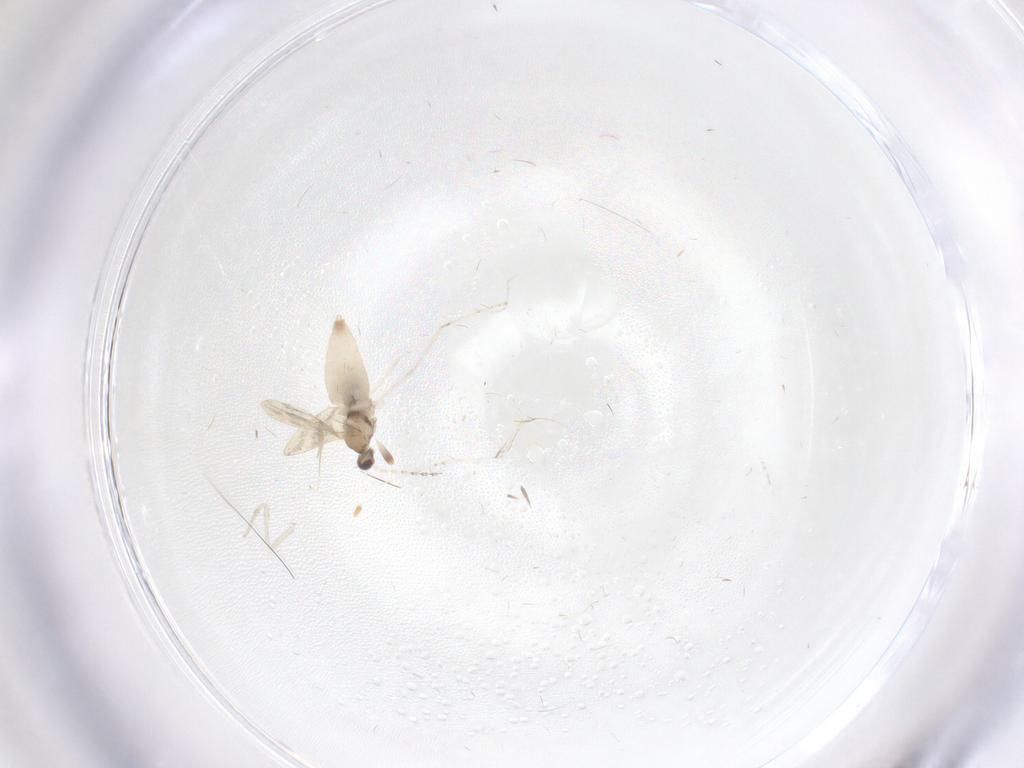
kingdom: Animalia
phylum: Arthropoda
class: Insecta
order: Diptera
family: Cecidomyiidae
